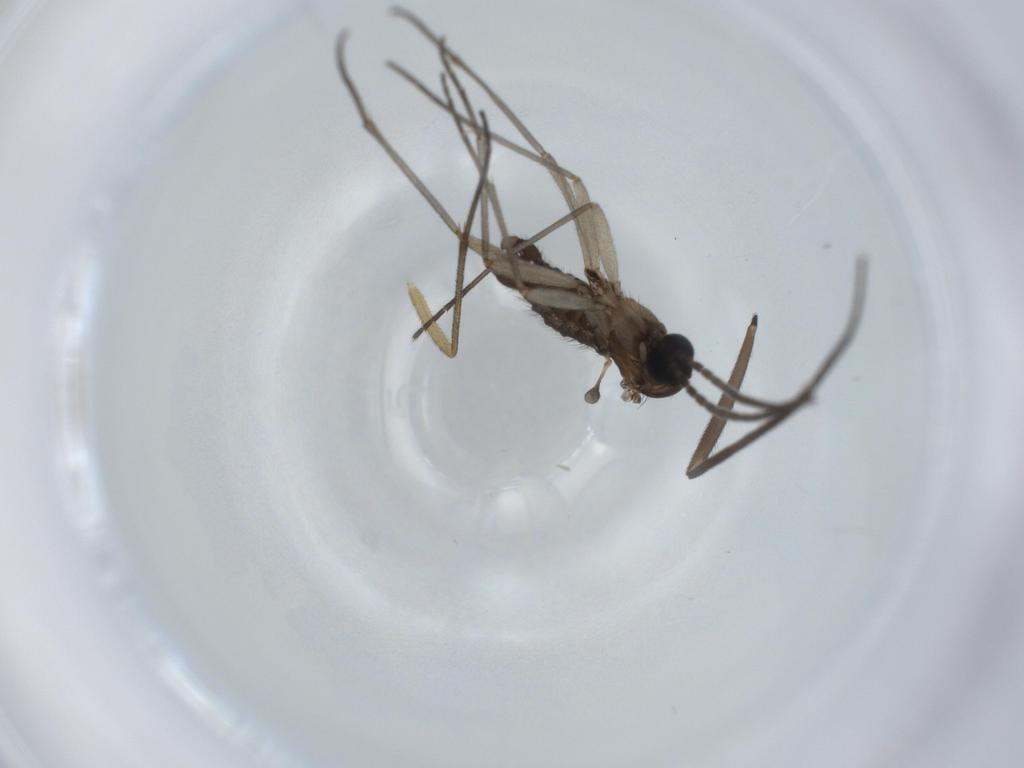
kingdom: Animalia
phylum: Arthropoda
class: Insecta
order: Diptera
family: Sciaridae
